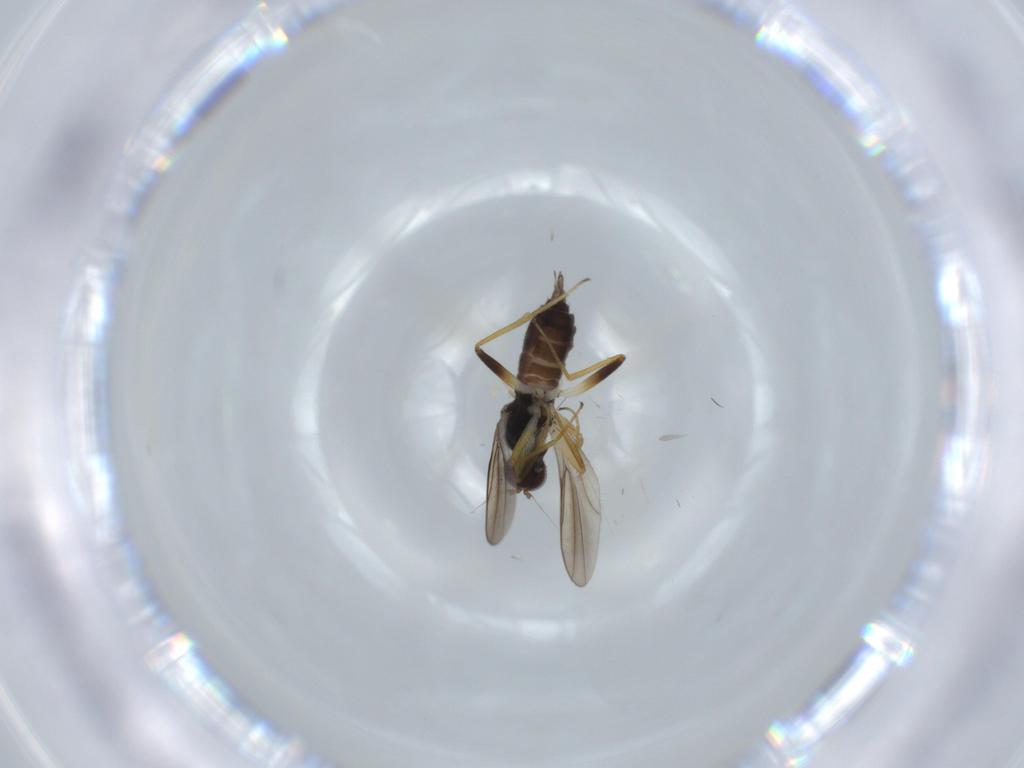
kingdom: Animalia
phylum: Arthropoda
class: Insecta
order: Diptera
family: Hybotidae
